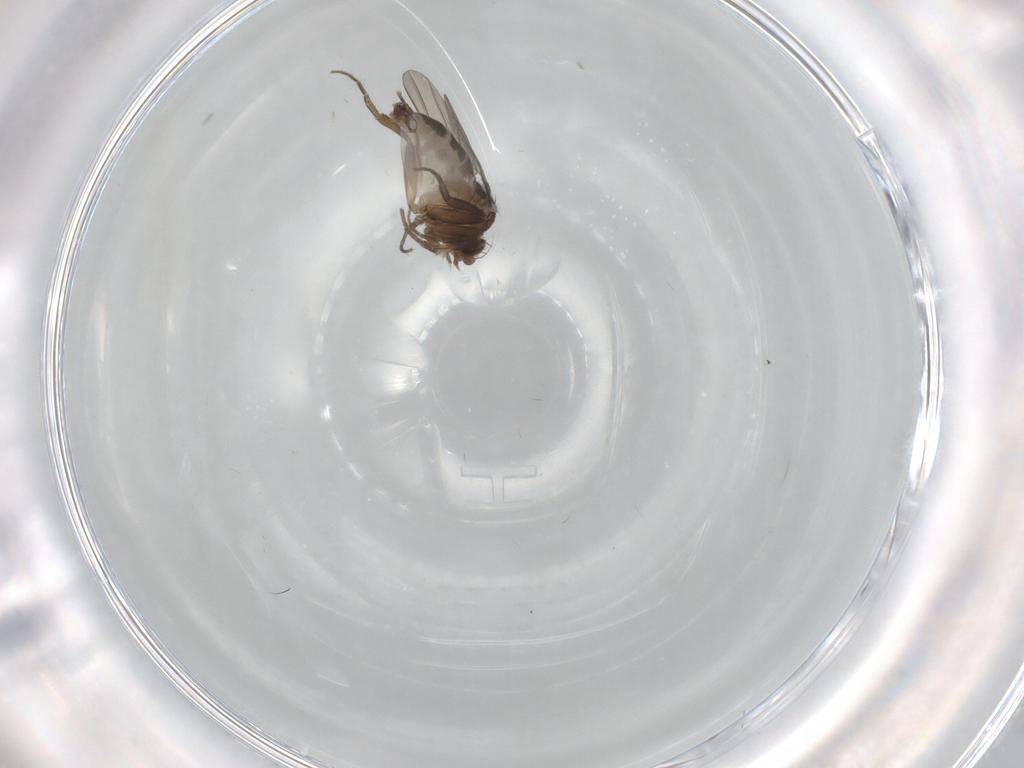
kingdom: Animalia
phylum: Arthropoda
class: Insecta
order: Diptera
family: Phoridae
